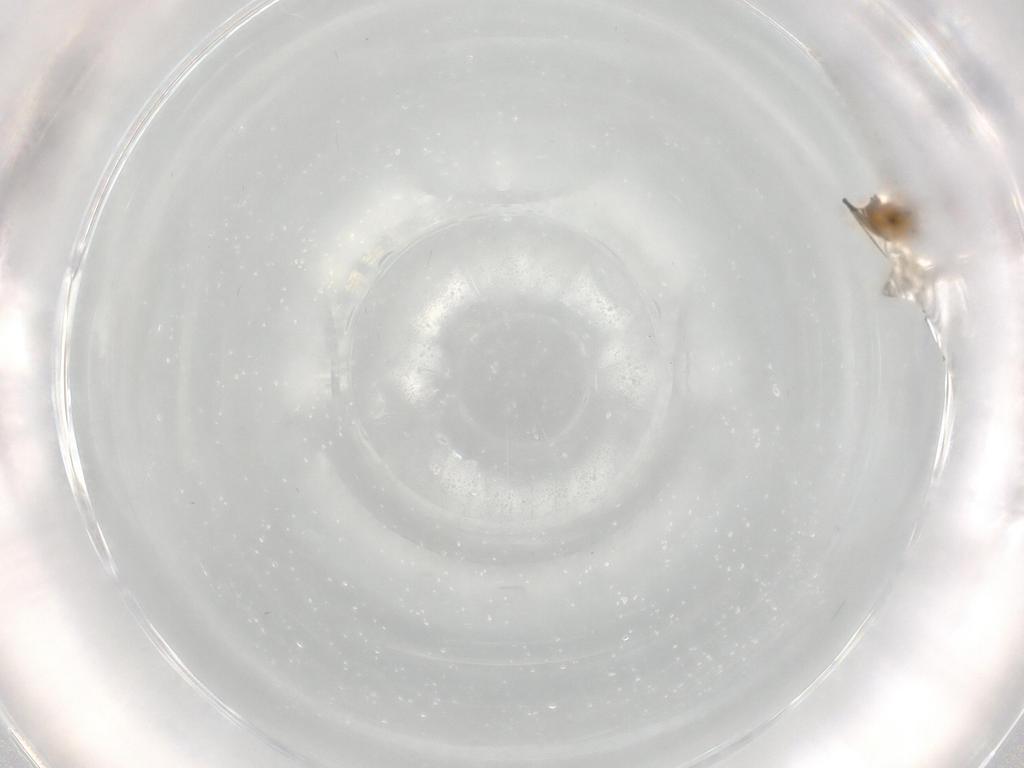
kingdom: Animalia
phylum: Arthropoda
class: Insecta
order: Hymenoptera
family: Mymaridae
